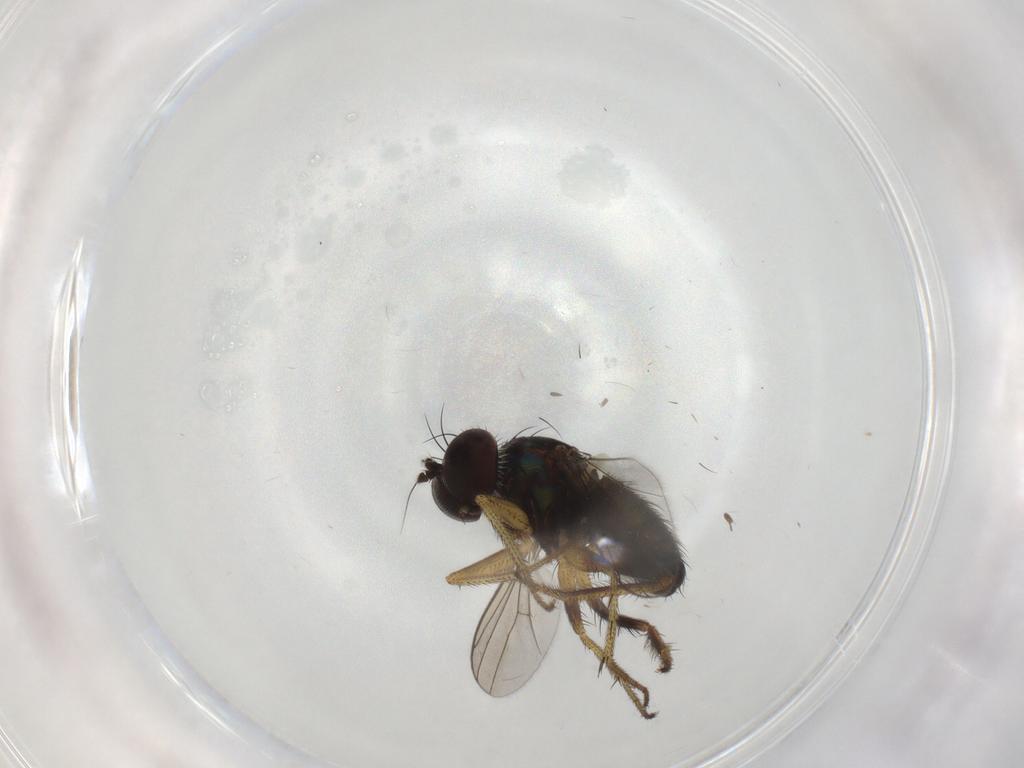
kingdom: Animalia
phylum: Arthropoda
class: Insecta
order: Diptera
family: Dolichopodidae
